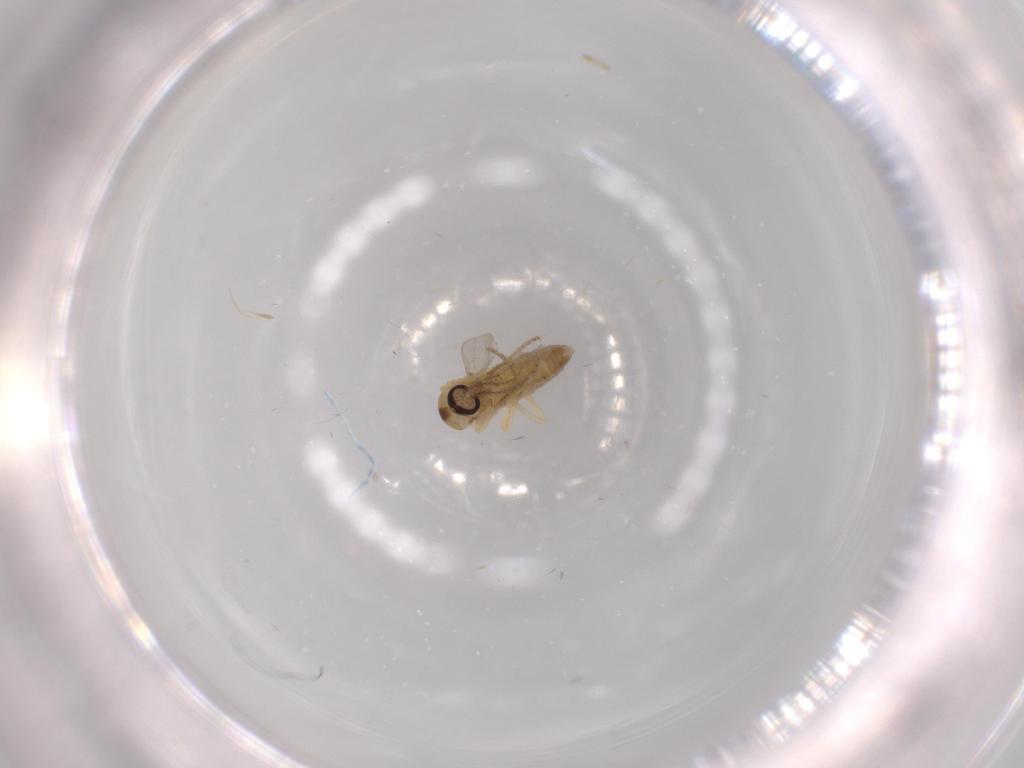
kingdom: Animalia
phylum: Arthropoda
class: Insecta
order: Diptera
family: Ceratopogonidae
